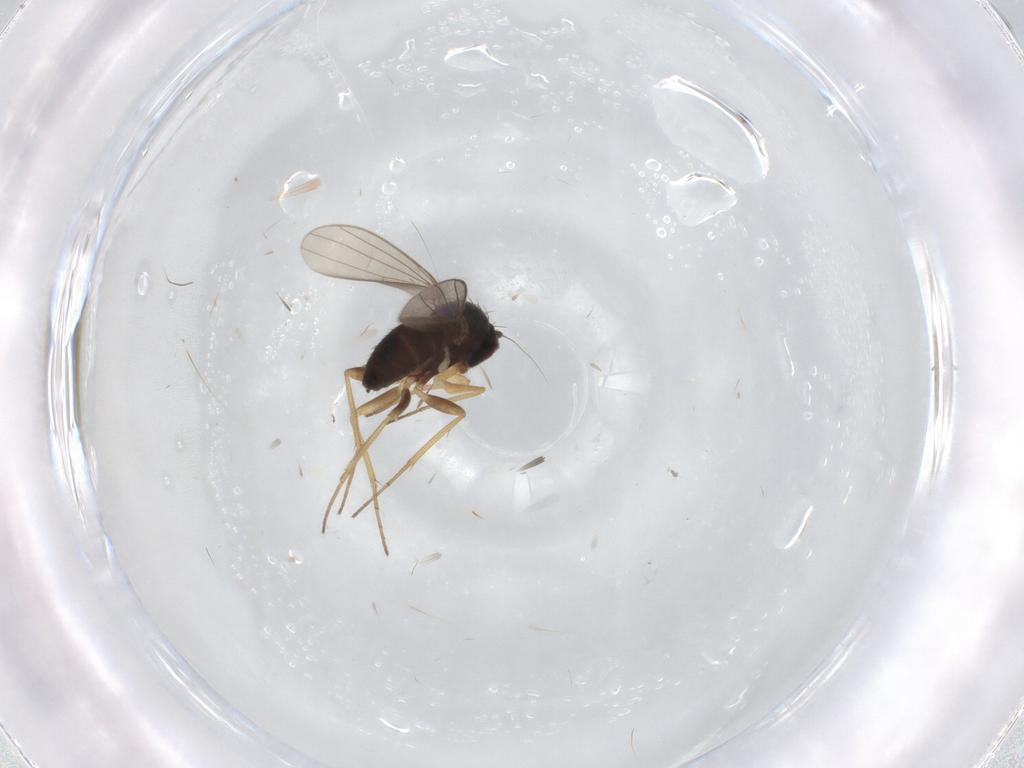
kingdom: Animalia
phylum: Arthropoda
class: Insecta
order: Diptera
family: Dolichopodidae
